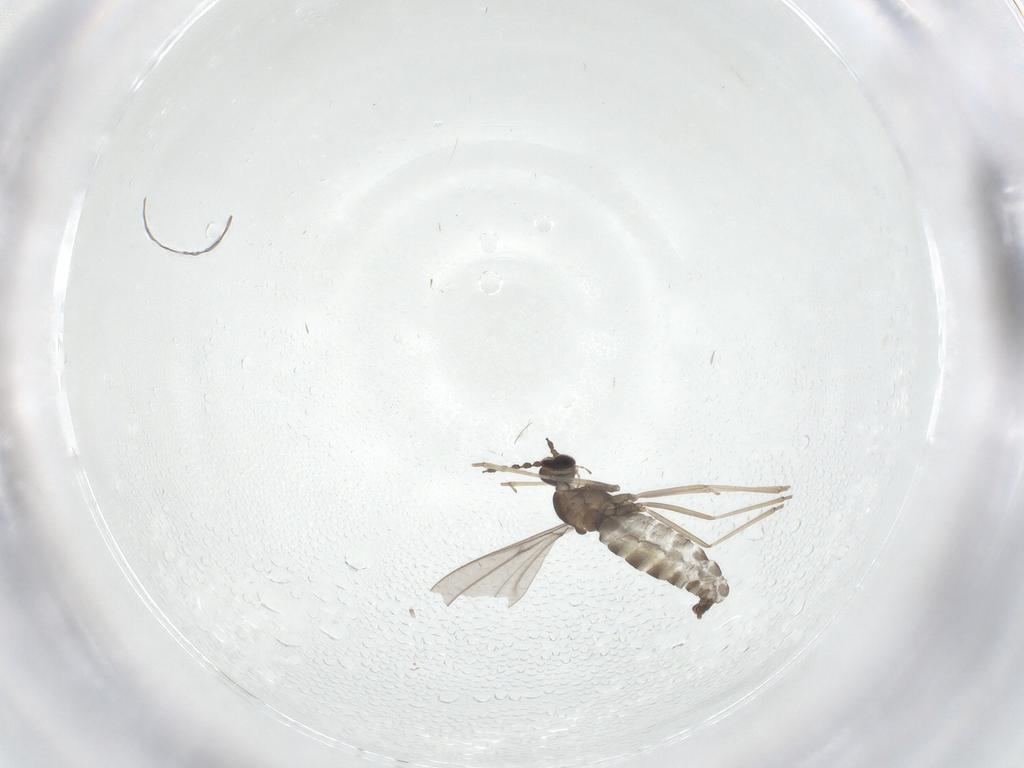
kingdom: Animalia
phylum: Arthropoda
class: Insecta
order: Diptera
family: Cecidomyiidae
